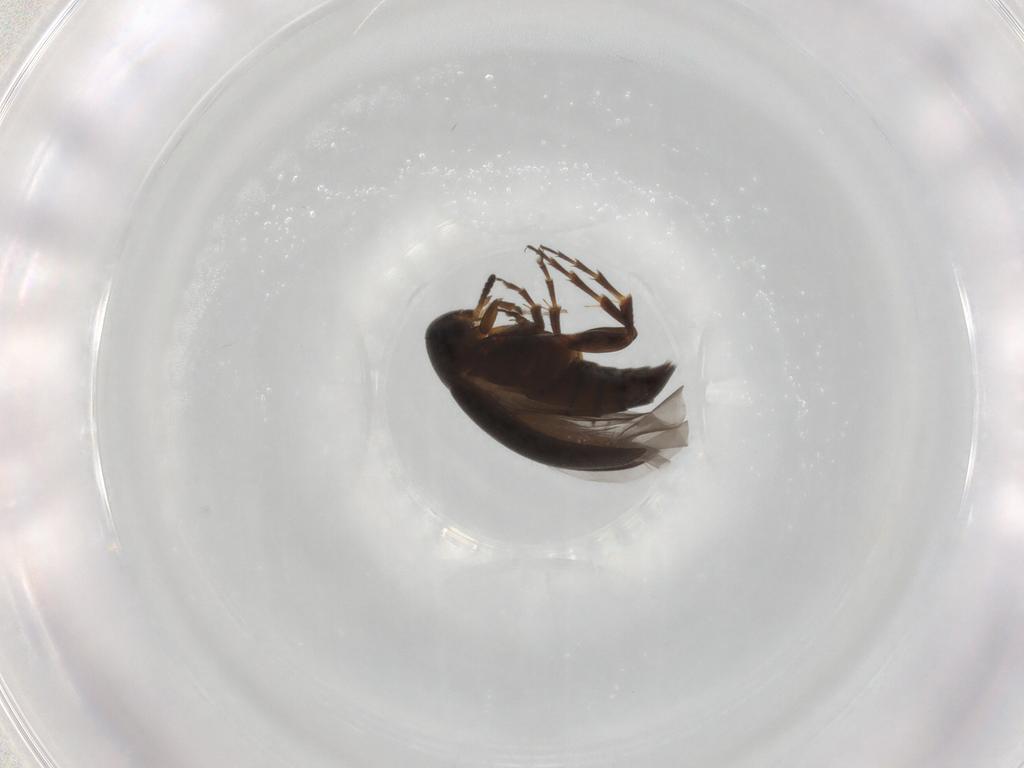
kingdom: Animalia
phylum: Arthropoda
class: Insecta
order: Coleoptera
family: Scraptiidae
